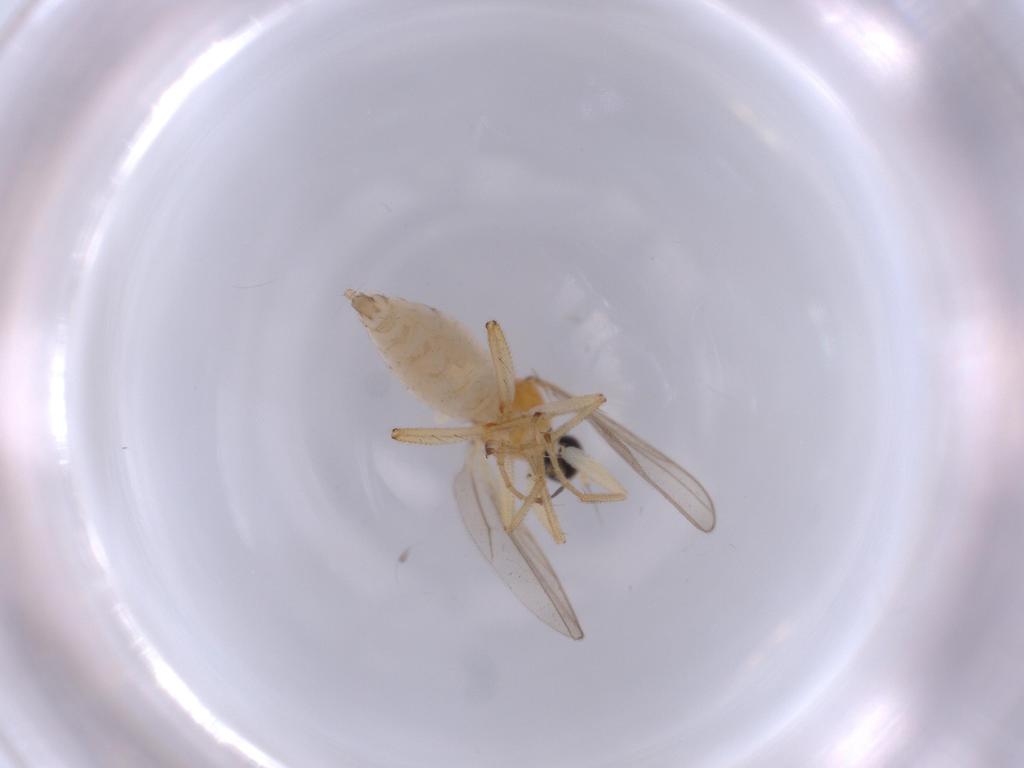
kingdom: Animalia
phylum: Arthropoda
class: Insecta
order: Diptera
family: Hybotidae
